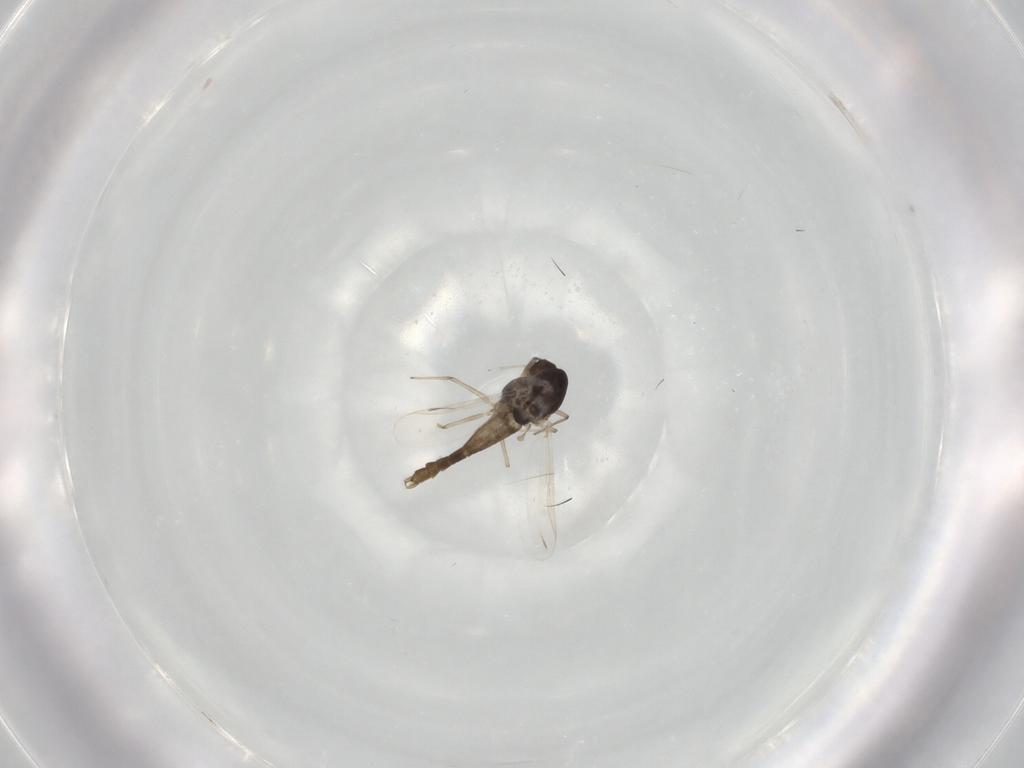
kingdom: Animalia
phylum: Arthropoda
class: Insecta
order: Diptera
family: Chironomidae
